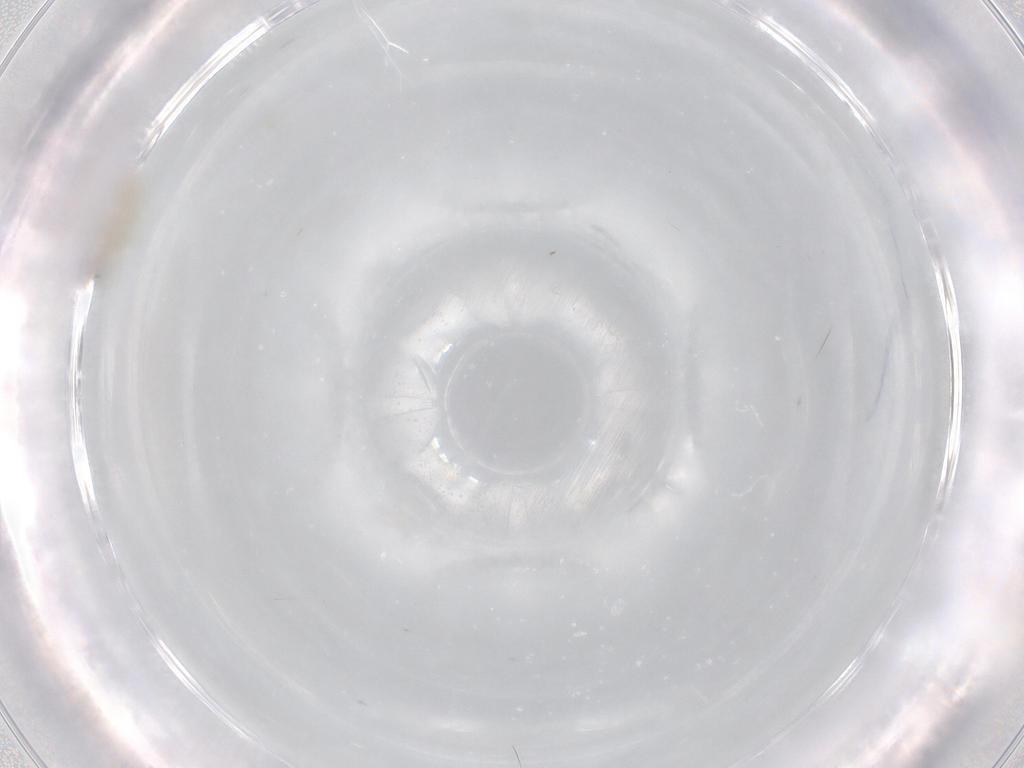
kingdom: Animalia
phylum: Arthropoda
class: Insecta
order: Diptera
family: Cecidomyiidae
